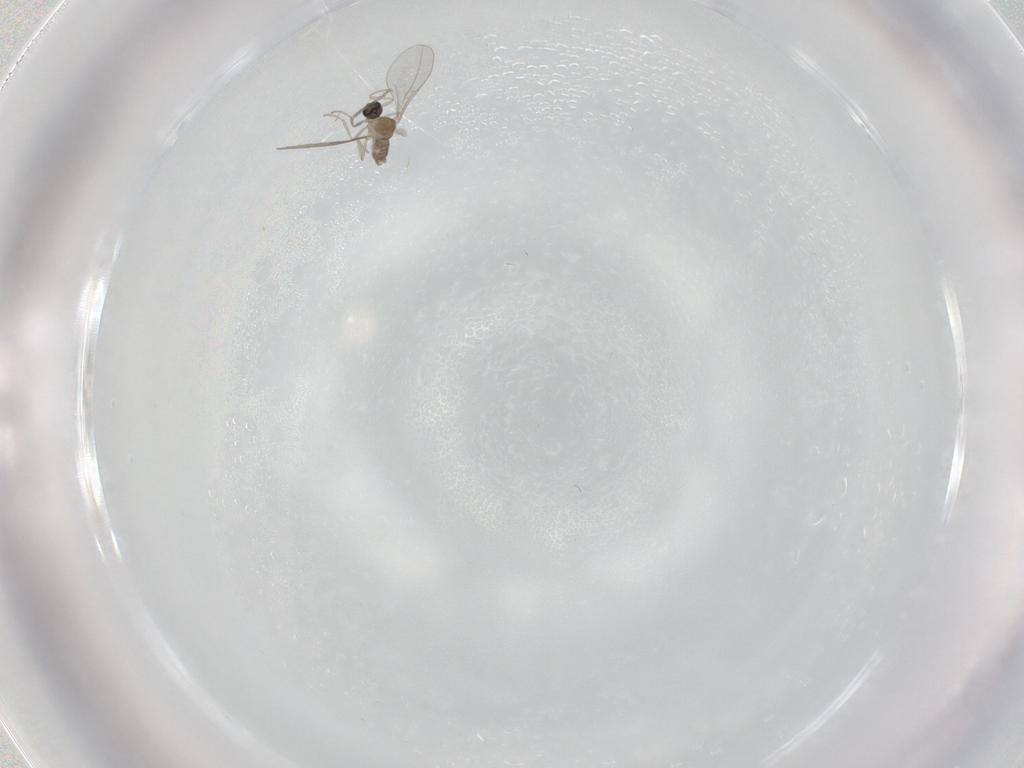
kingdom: Animalia
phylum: Arthropoda
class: Insecta
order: Diptera
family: Cecidomyiidae
